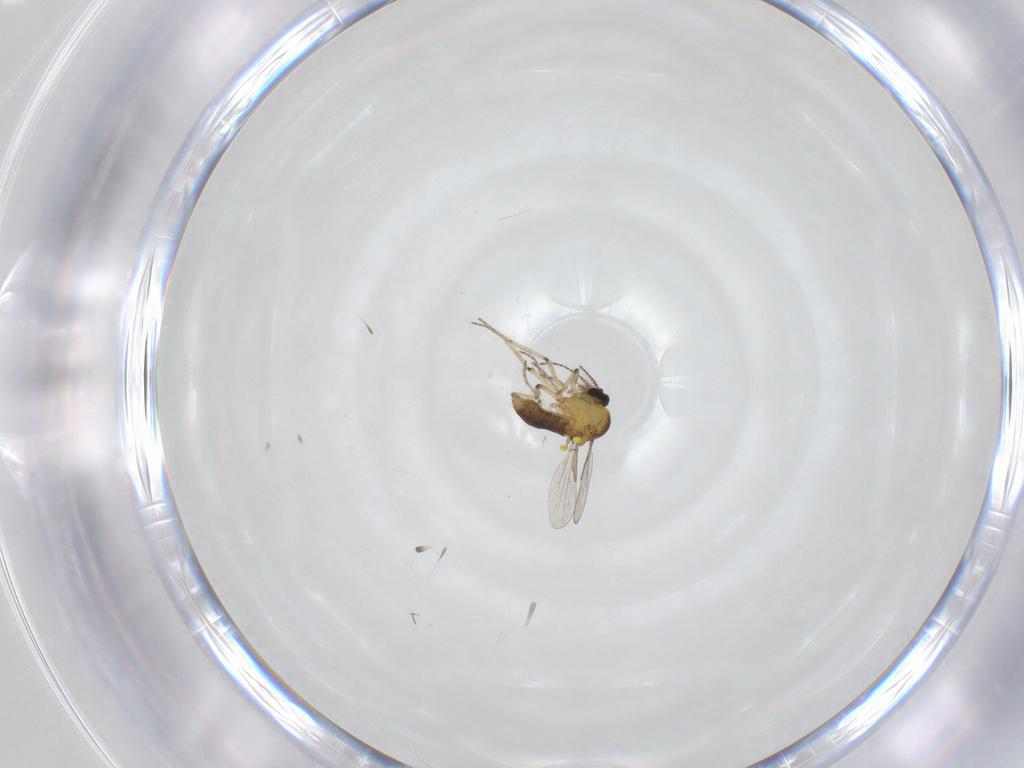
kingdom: Animalia
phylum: Arthropoda
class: Insecta
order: Diptera
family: Ceratopogonidae
